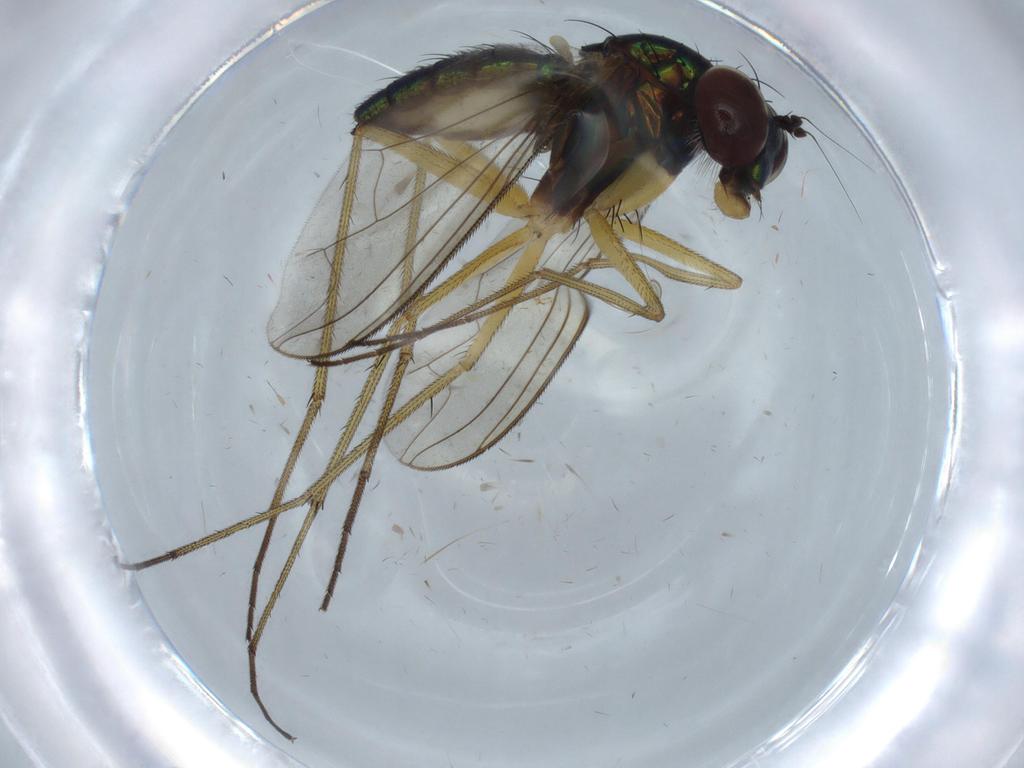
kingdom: Animalia
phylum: Arthropoda
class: Insecta
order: Diptera
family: Dolichopodidae
